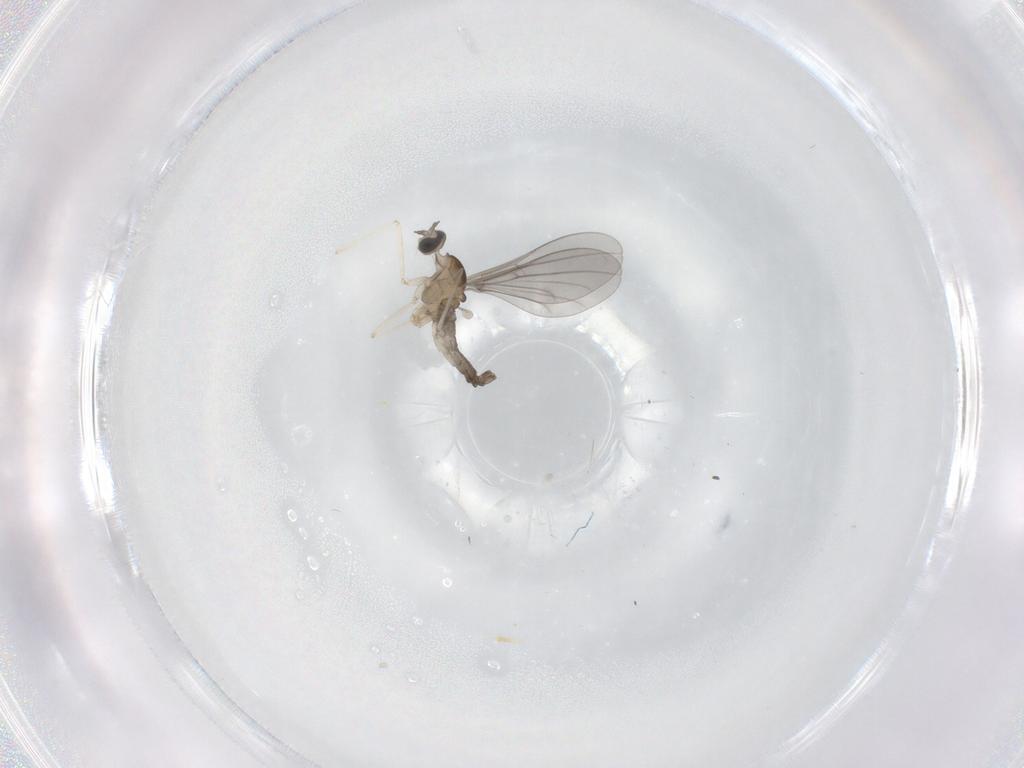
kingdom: Animalia
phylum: Arthropoda
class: Insecta
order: Diptera
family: Cecidomyiidae
